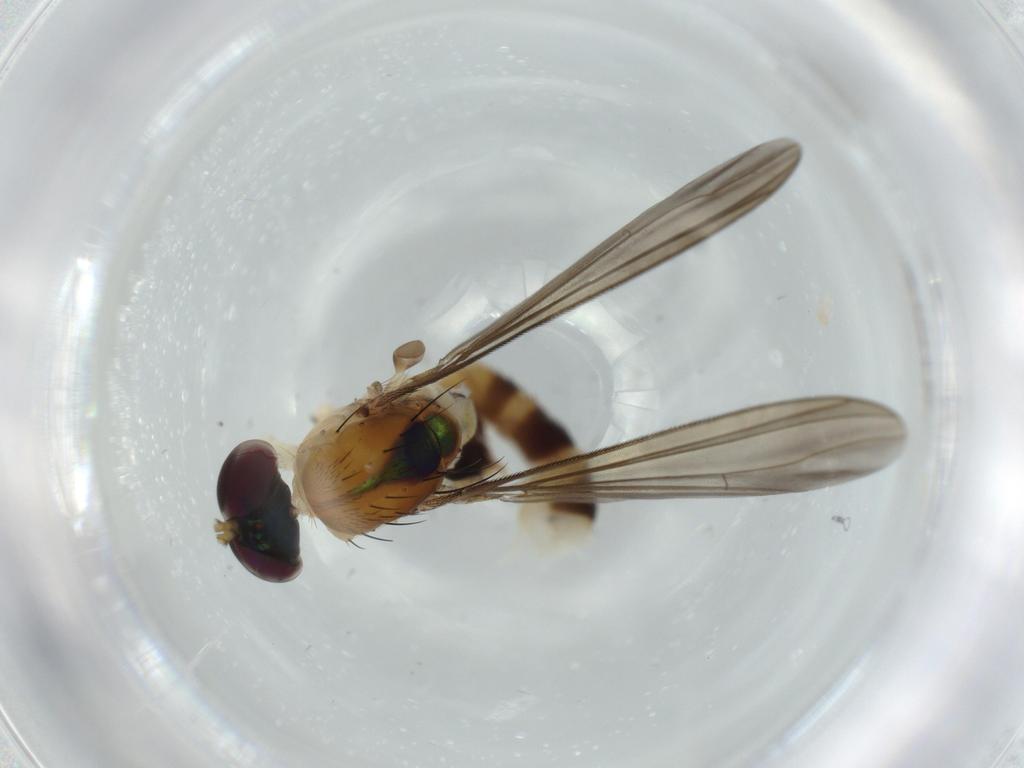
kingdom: Animalia
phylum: Arthropoda
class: Insecta
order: Diptera
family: Dolichopodidae
